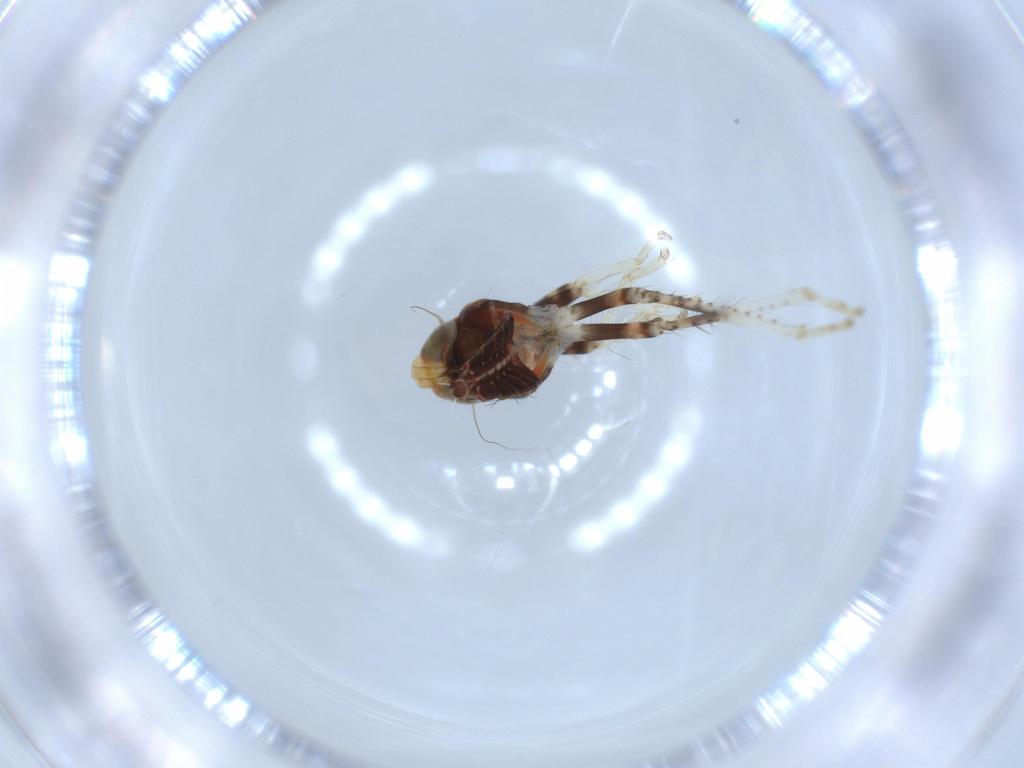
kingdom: Animalia
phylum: Arthropoda
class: Insecta
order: Hemiptera
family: Cicadellidae
